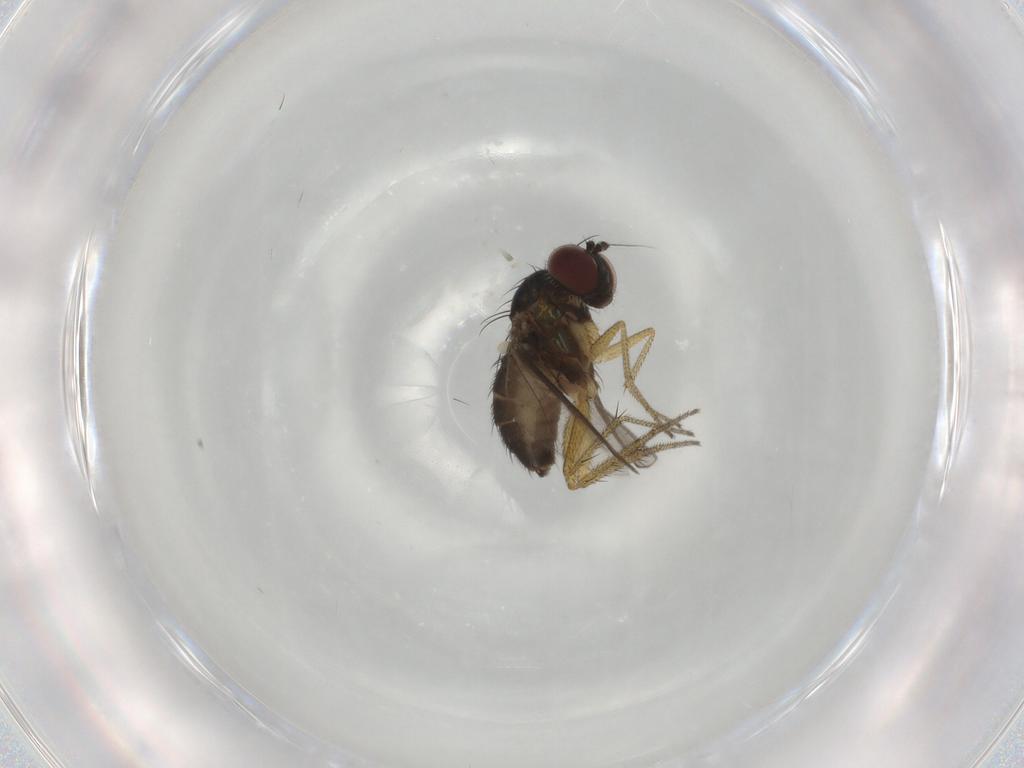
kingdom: Animalia
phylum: Arthropoda
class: Insecta
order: Diptera
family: Dolichopodidae
